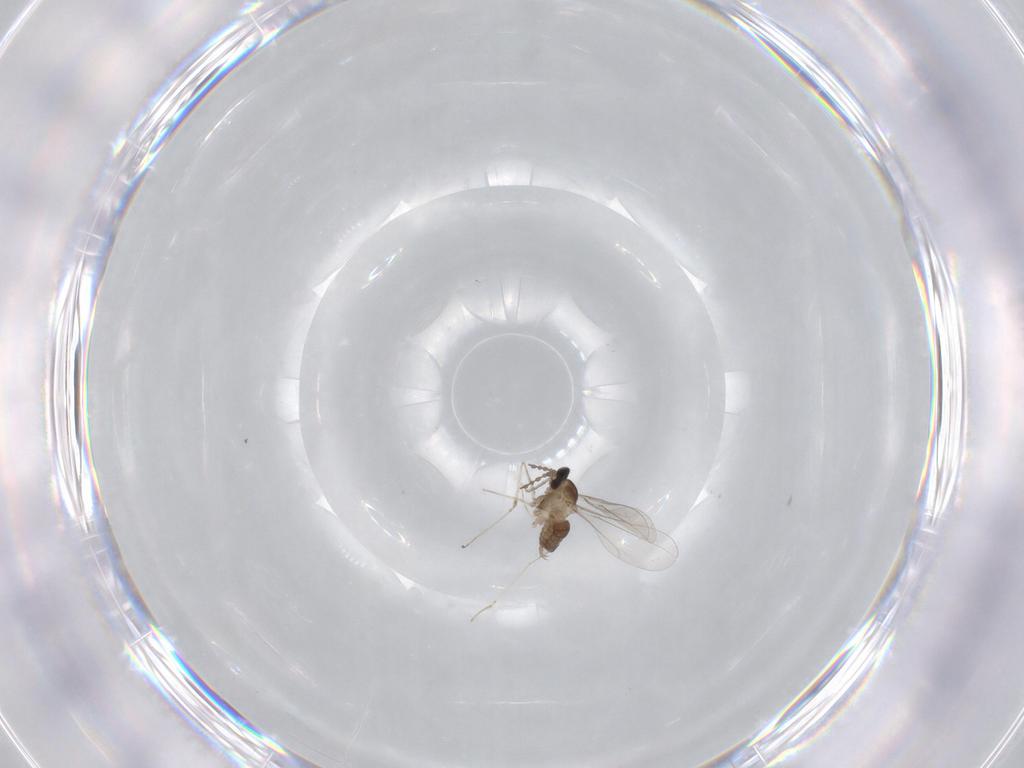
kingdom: Animalia
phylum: Arthropoda
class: Insecta
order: Diptera
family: Cecidomyiidae
